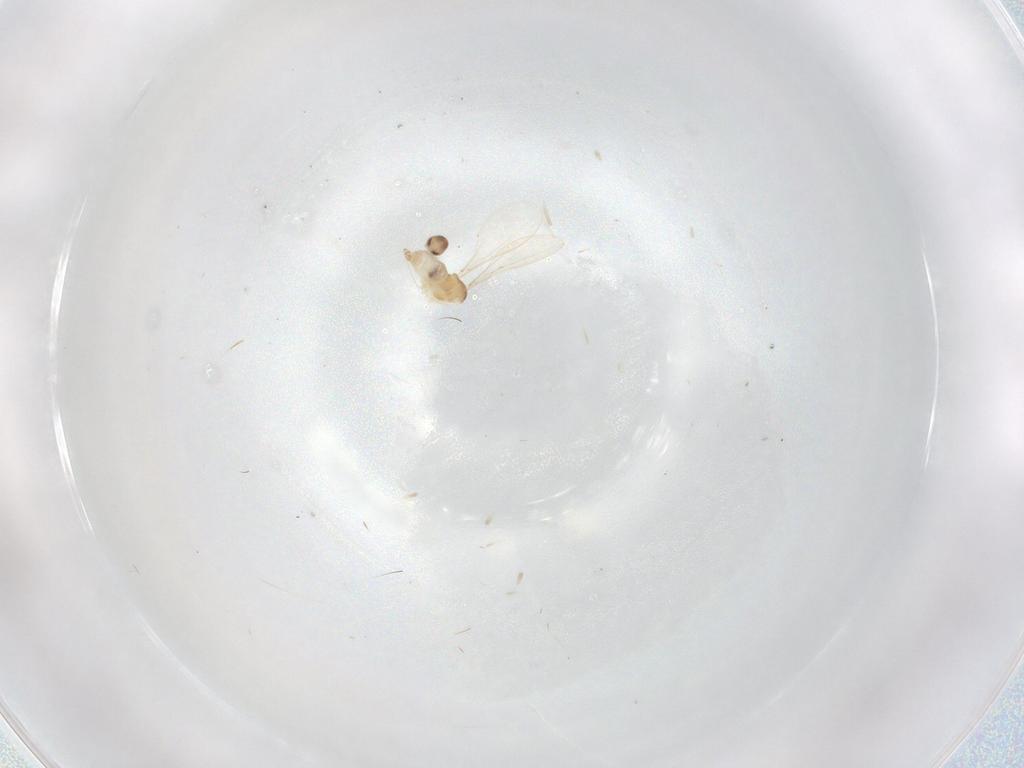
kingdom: Animalia
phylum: Arthropoda
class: Insecta
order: Diptera
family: Cecidomyiidae
